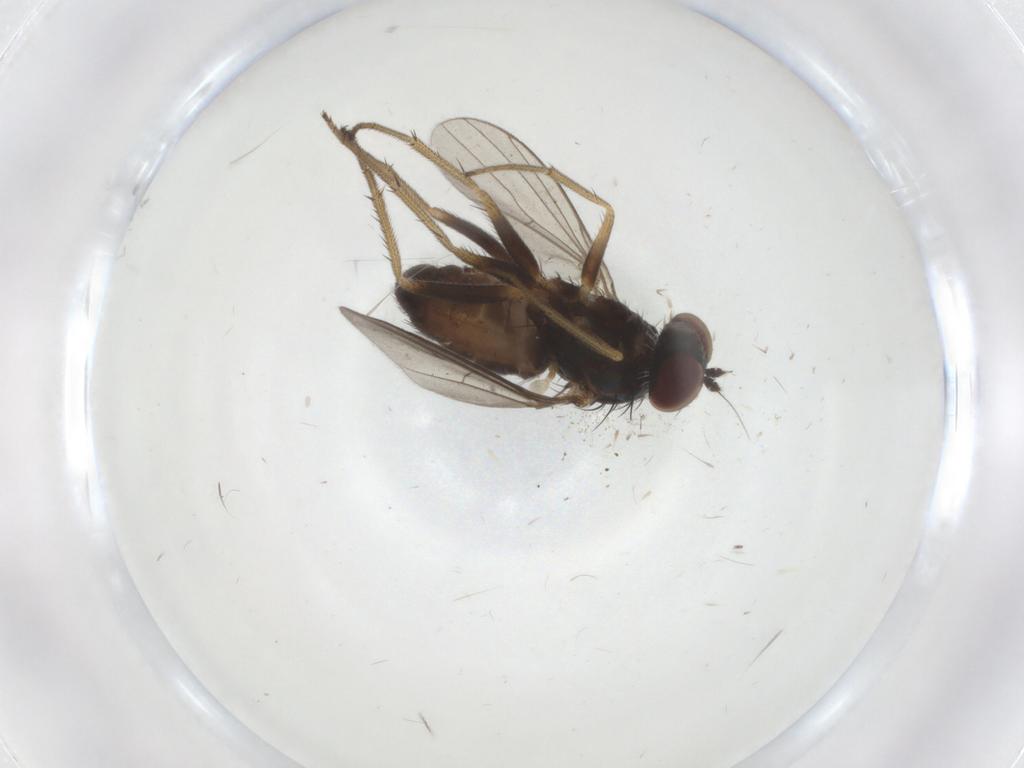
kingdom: Animalia
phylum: Arthropoda
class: Insecta
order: Diptera
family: Dolichopodidae
